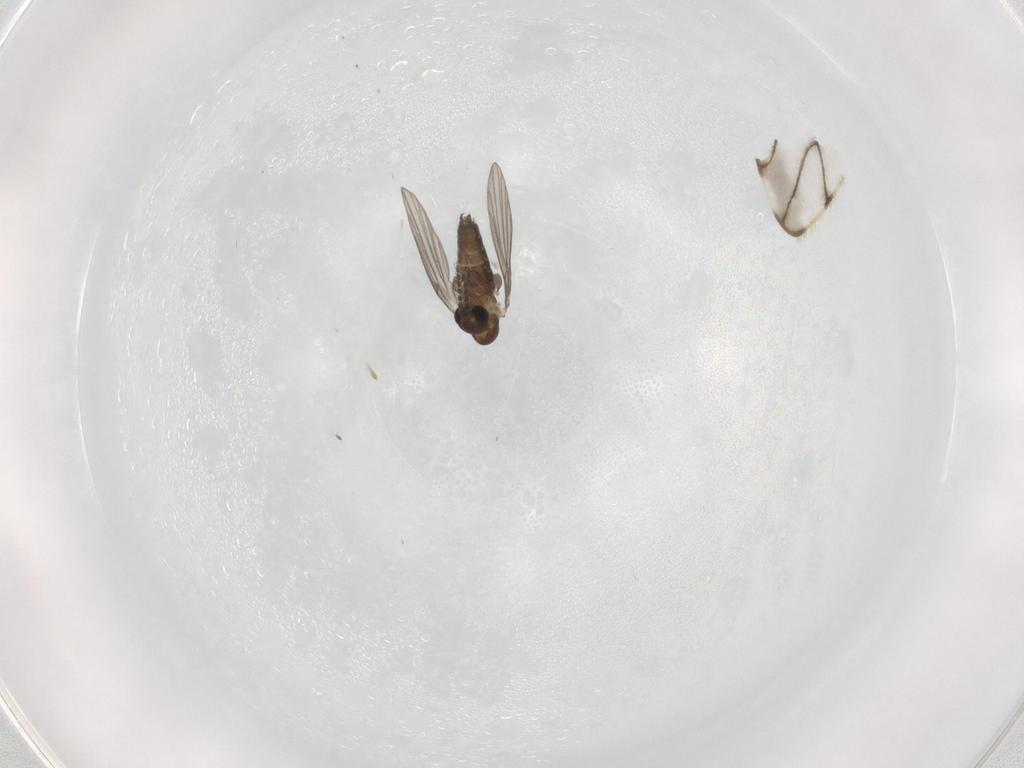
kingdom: Animalia
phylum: Arthropoda
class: Insecta
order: Diptera
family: Psychodidae
